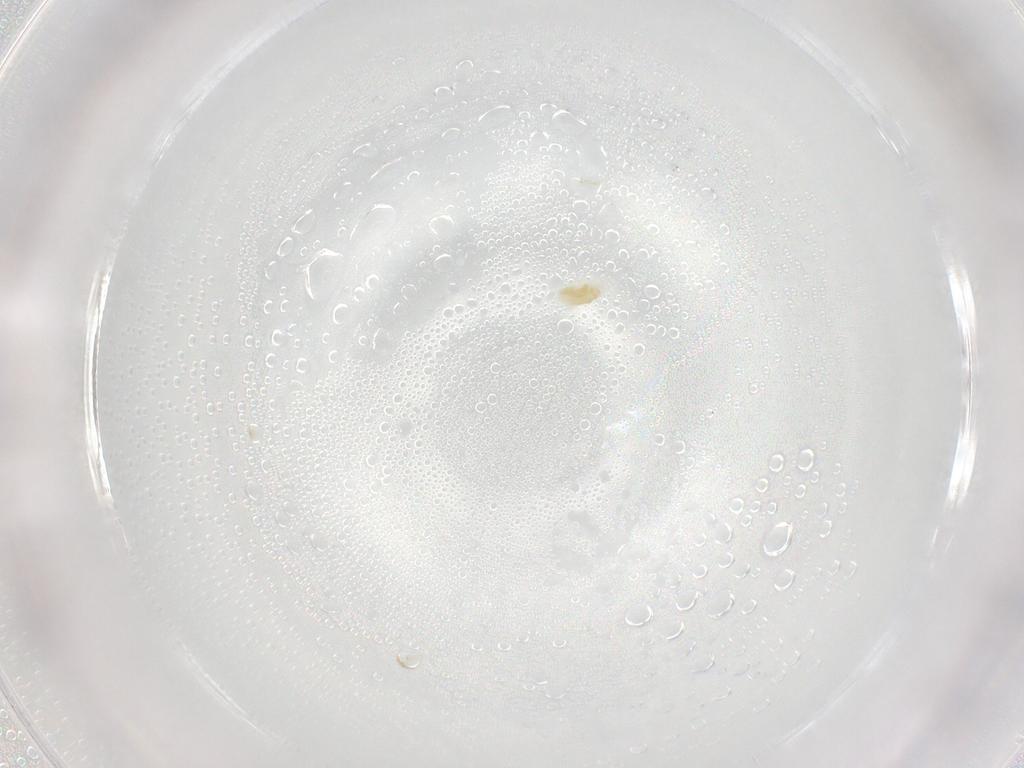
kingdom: Animalia
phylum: Arthropoda
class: Arachnida
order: Trombidiformes
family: Eupodidae
